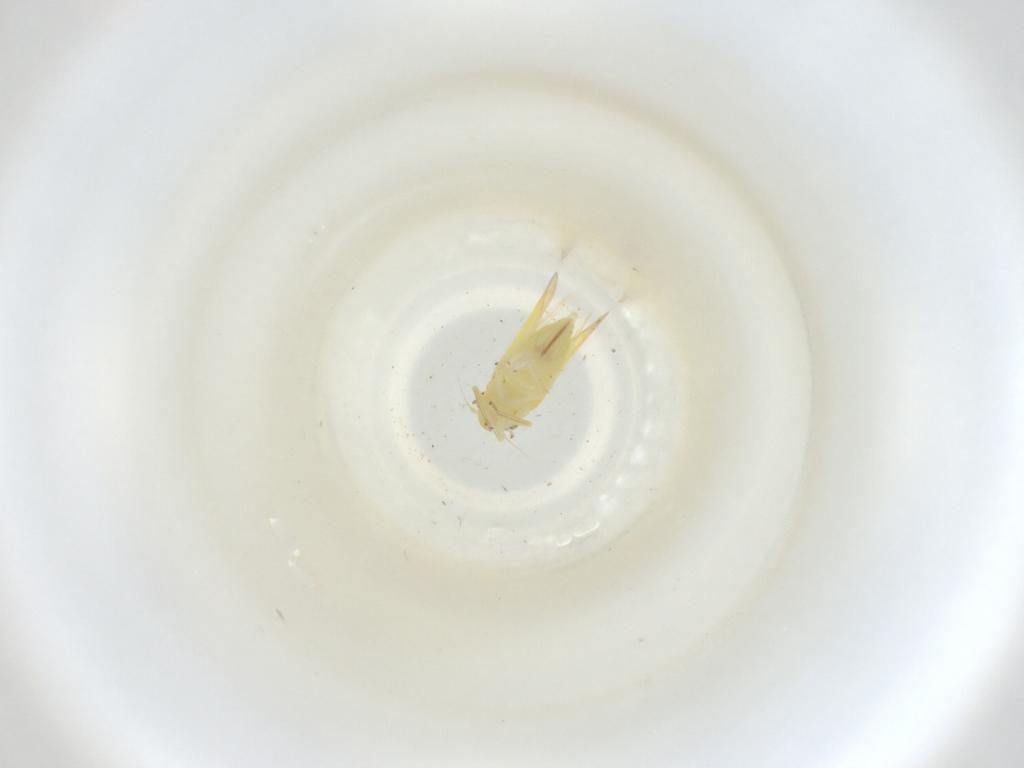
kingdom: Animalia
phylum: Arthropoda
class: Insecta
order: Hemiptera
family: Cicadellidae
